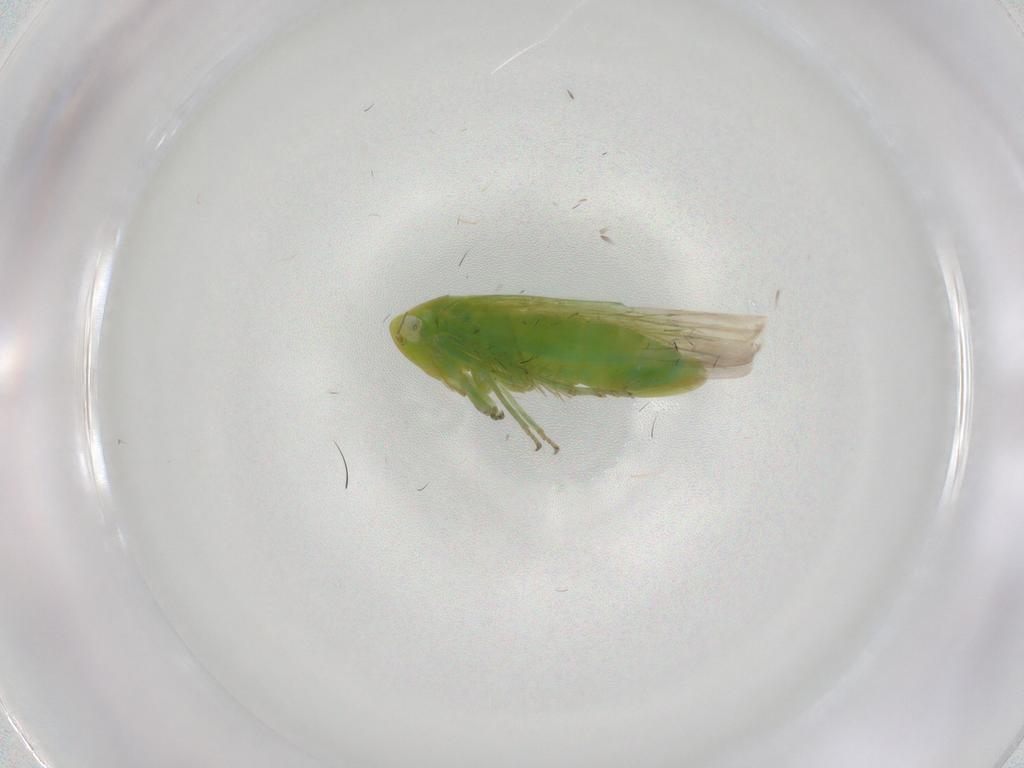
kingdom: Animalia
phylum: Arthropoda
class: Insecta
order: Hemiptera
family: Cicadellidae
